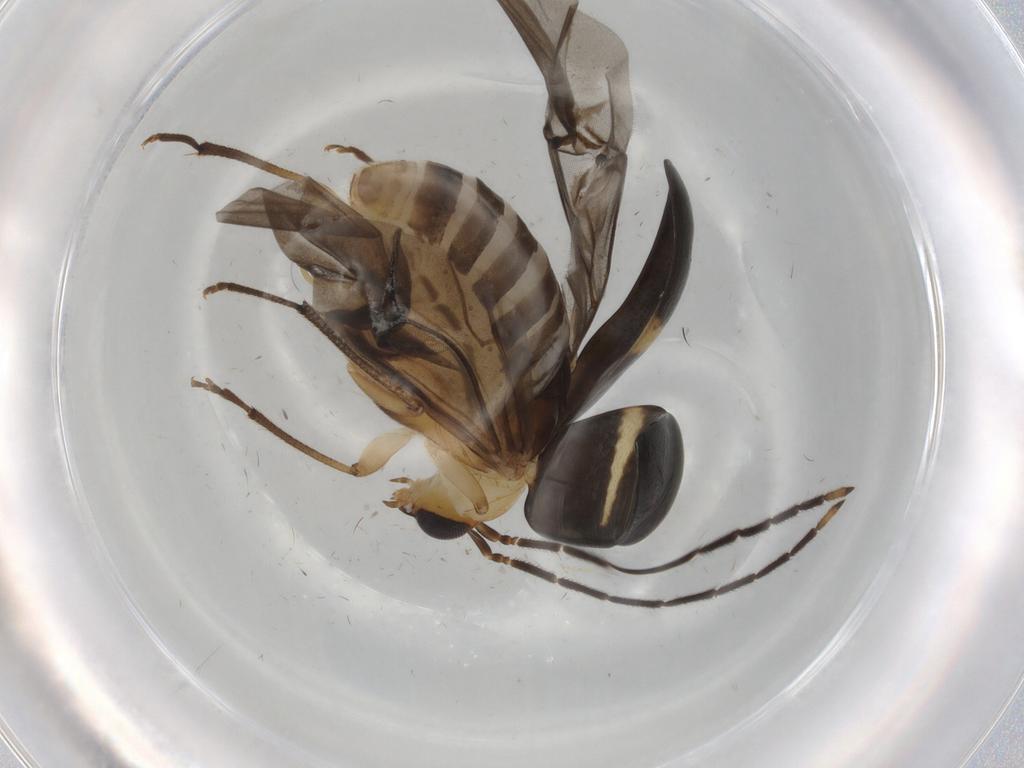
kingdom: Animalia
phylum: Arthropoda
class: Insecta
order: Coleoptera
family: Chrysomelidae
